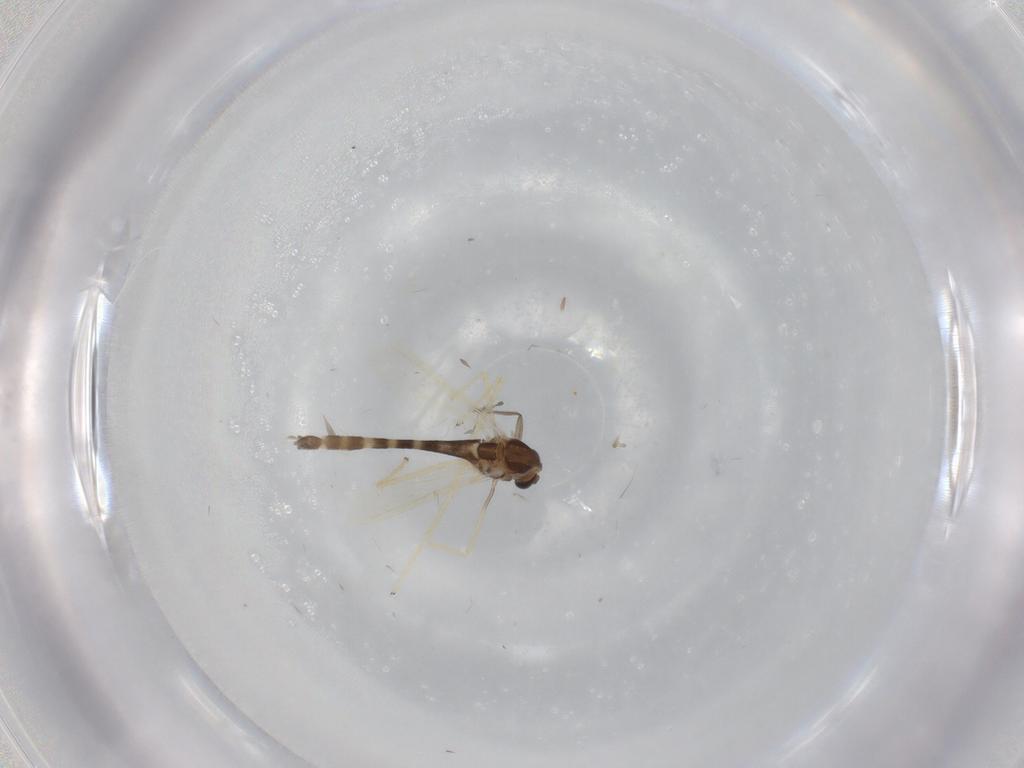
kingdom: Animalia
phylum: Arthropoda
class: Insecta
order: Diptera
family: Chironomidae
